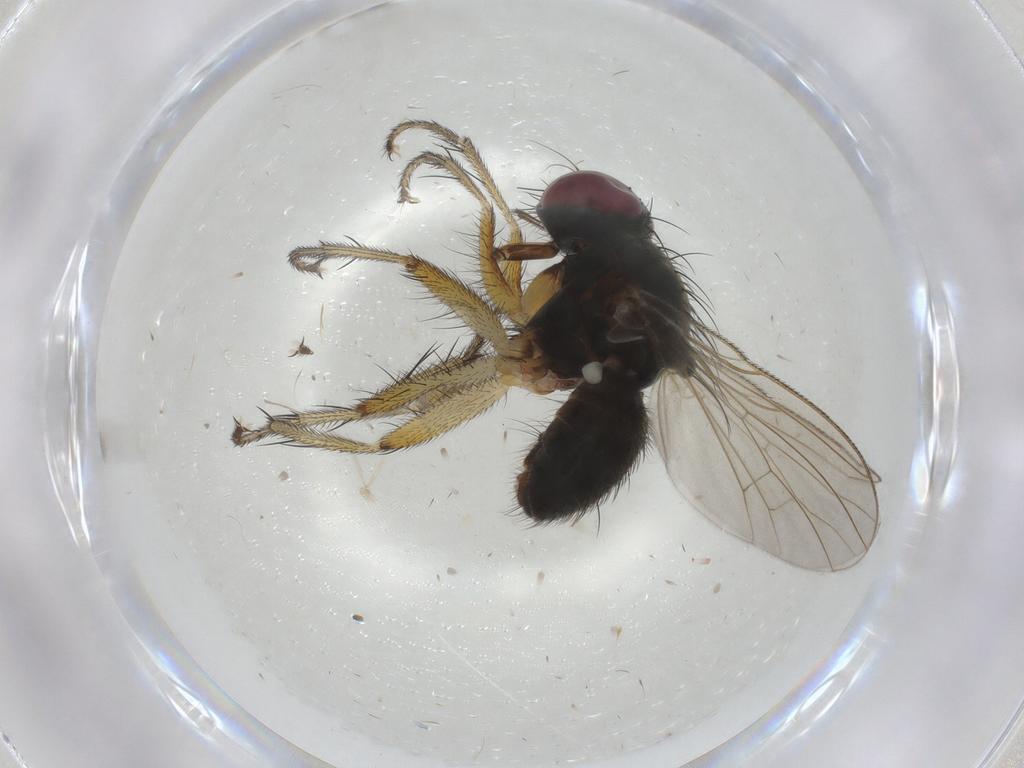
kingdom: Animalia
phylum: Arthropoda
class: Insecta
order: Diptera
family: Muscidae
